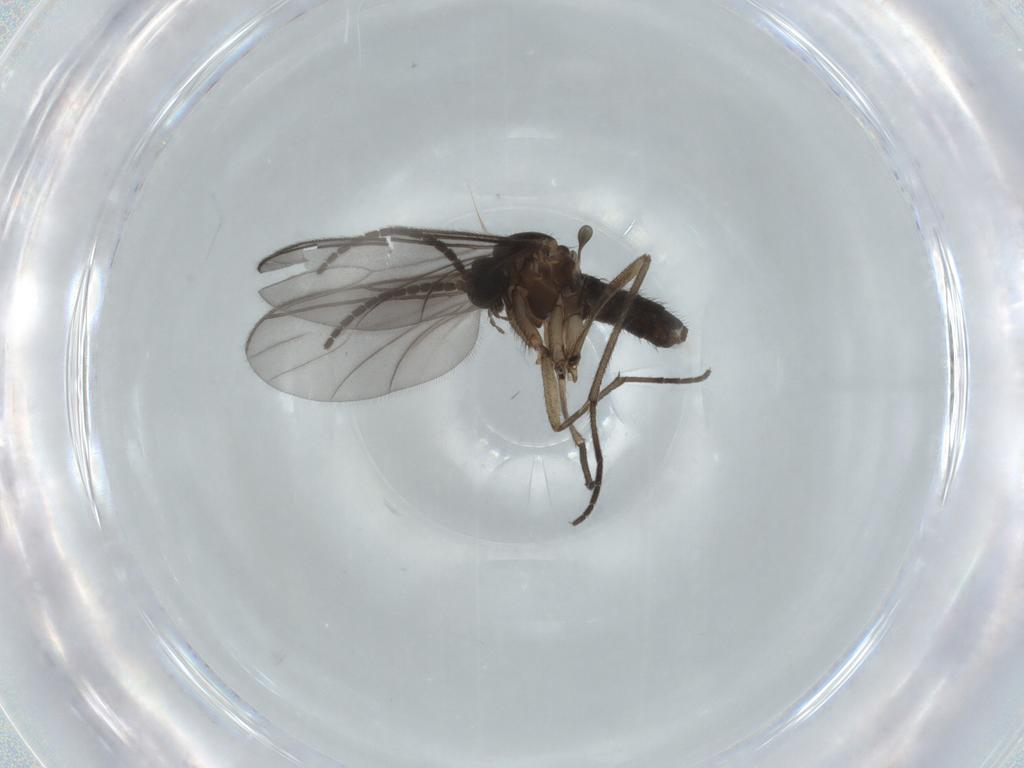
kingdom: Animalia
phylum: Arthropoda
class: Insecta
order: Diptera
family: Sciaridae
